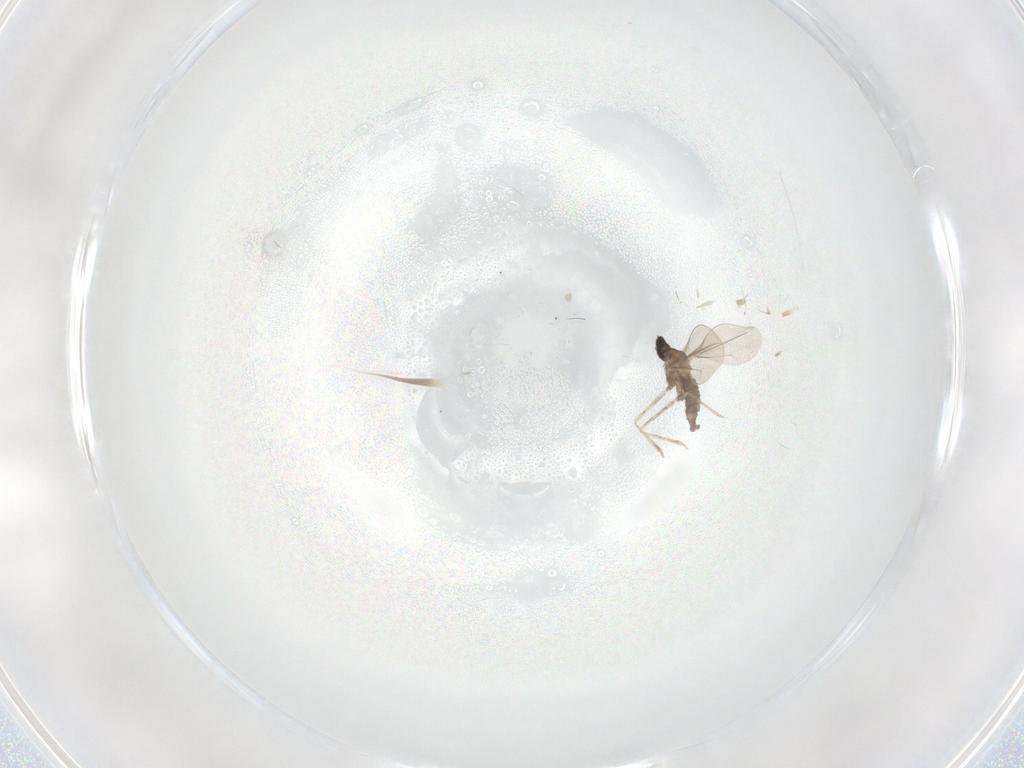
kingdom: Animalia
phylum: Arthropoda
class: Insecta
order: Diptera
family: Cecidomyiidae
